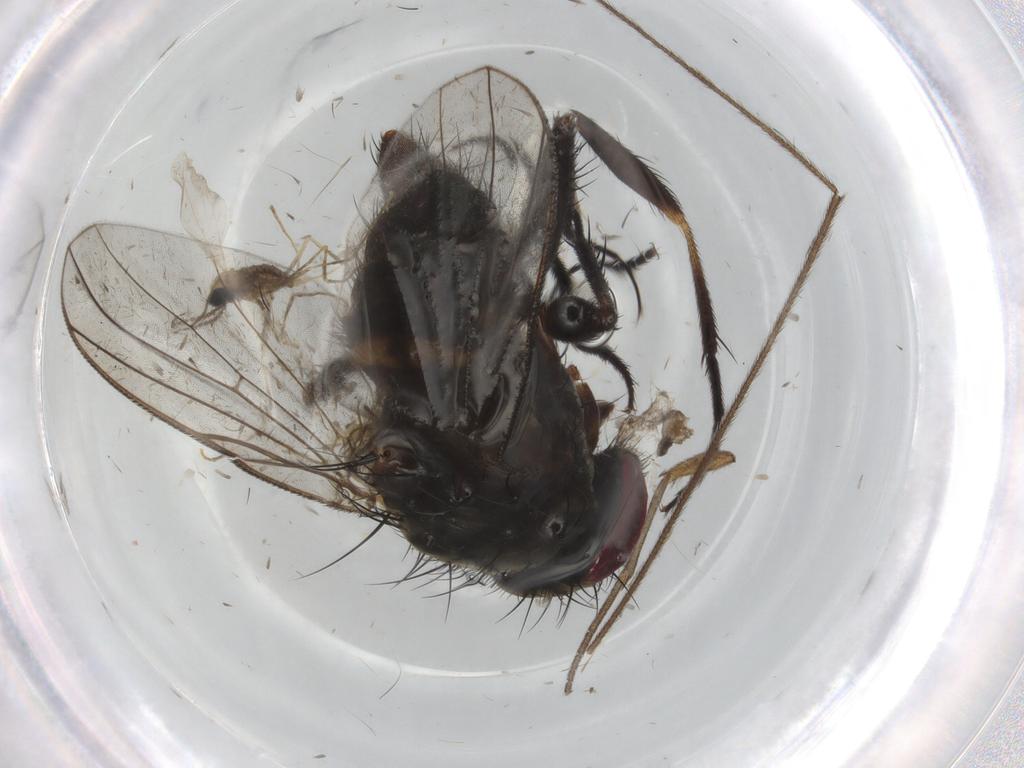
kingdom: Animalia
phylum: Arthropoda
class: Insecta
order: Diptera
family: Fannia
